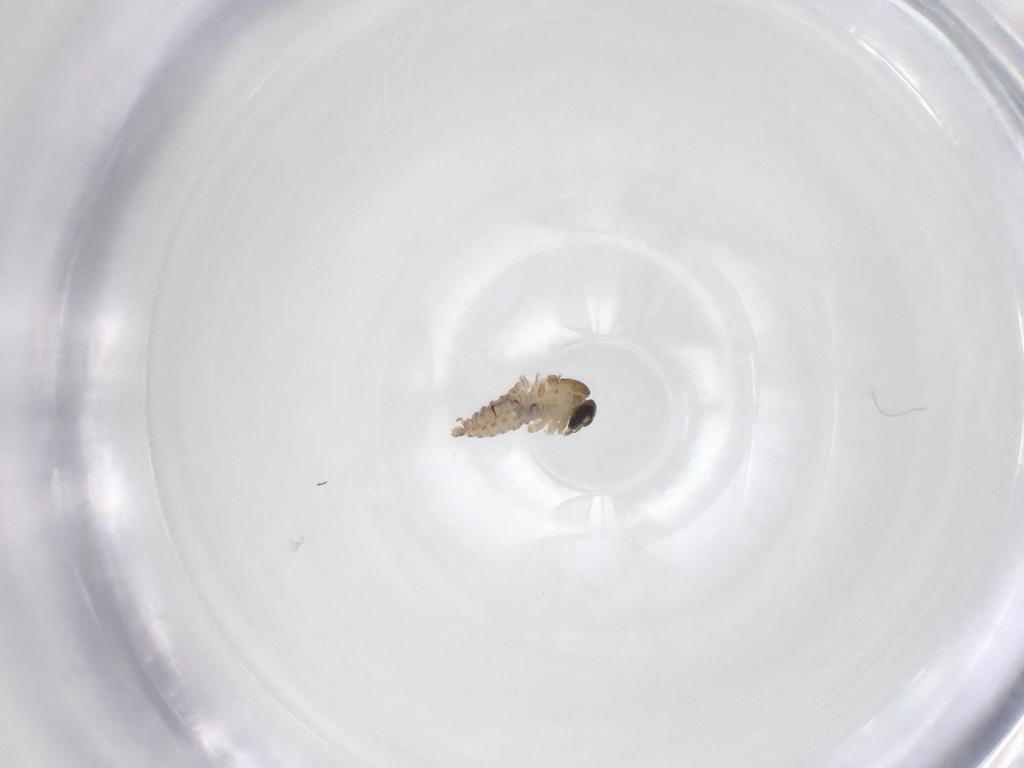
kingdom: Animalia
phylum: Arthropoda
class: Insecta
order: Diptera
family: Psychodidae
